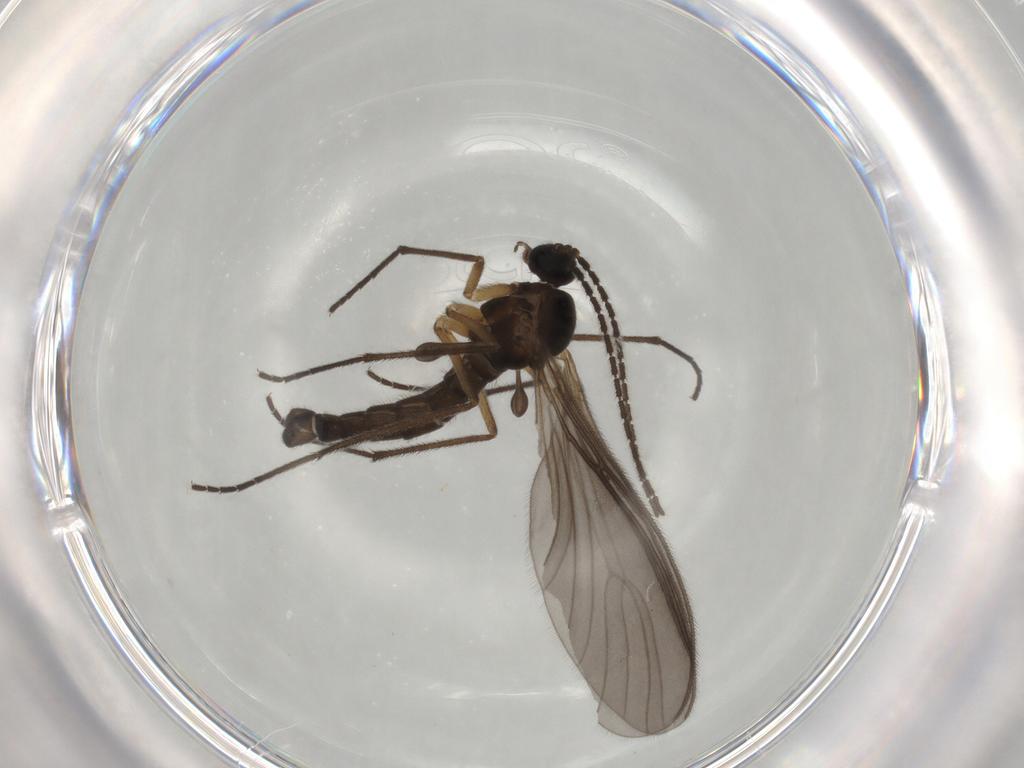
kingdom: Animalia
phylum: Arthropoda
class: Insecta
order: Diptera
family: Sciaridae
